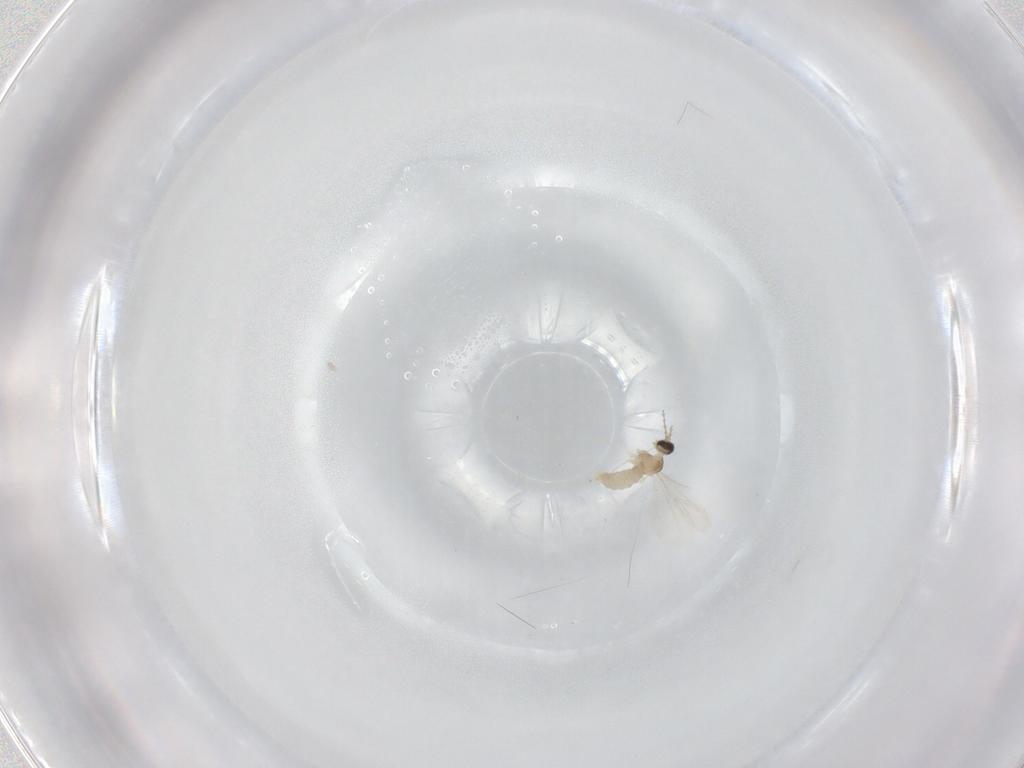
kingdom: Animalia
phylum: Arthropoda
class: Insecta
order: Diptera
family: Cecidomyiidae
